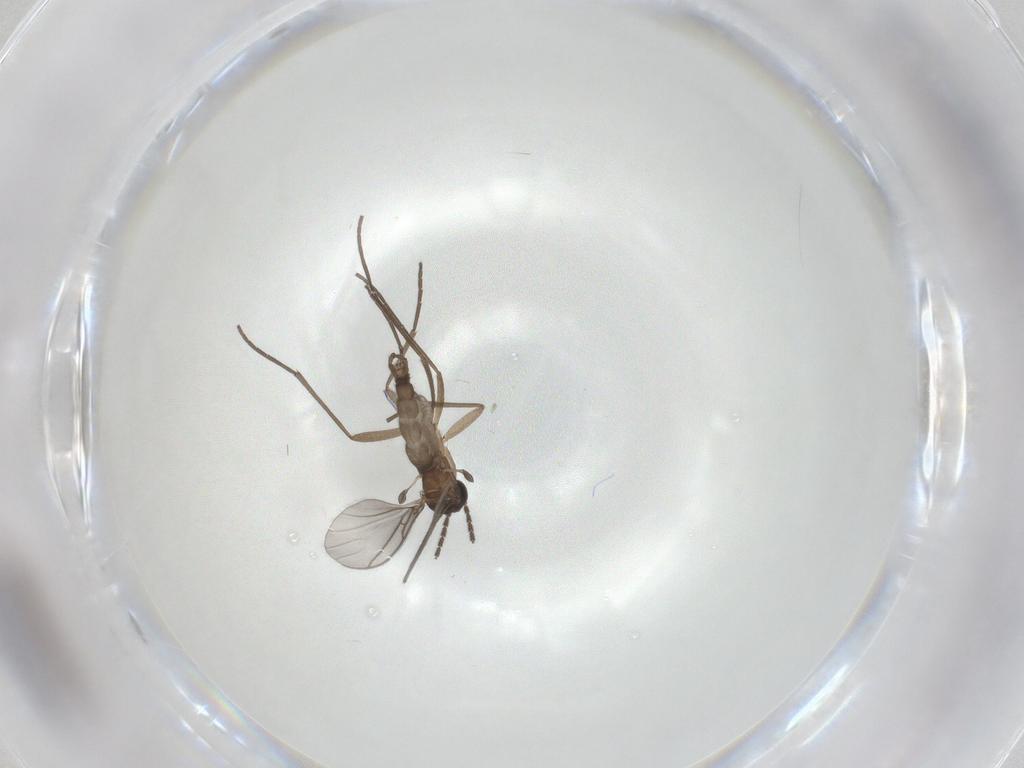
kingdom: Animalia
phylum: Arthropoda
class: Insecta
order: Diptera
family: Sciaridae
